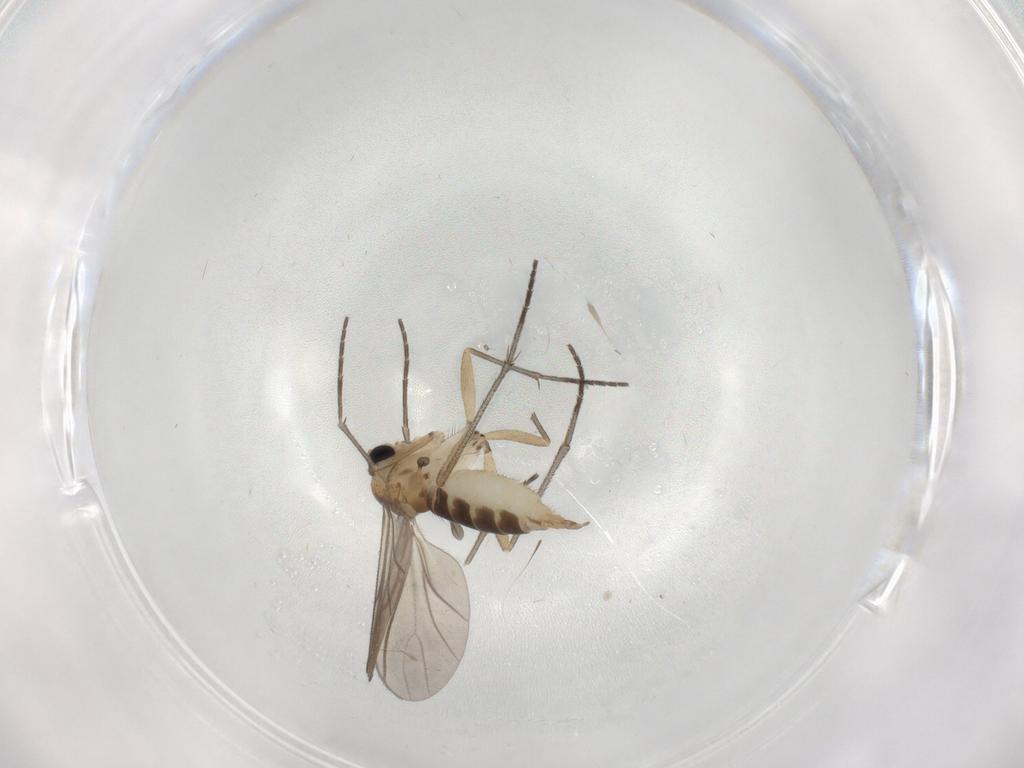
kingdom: Animalia
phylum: Arthropoda
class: Insecta
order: Diptera
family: Sciaridae
